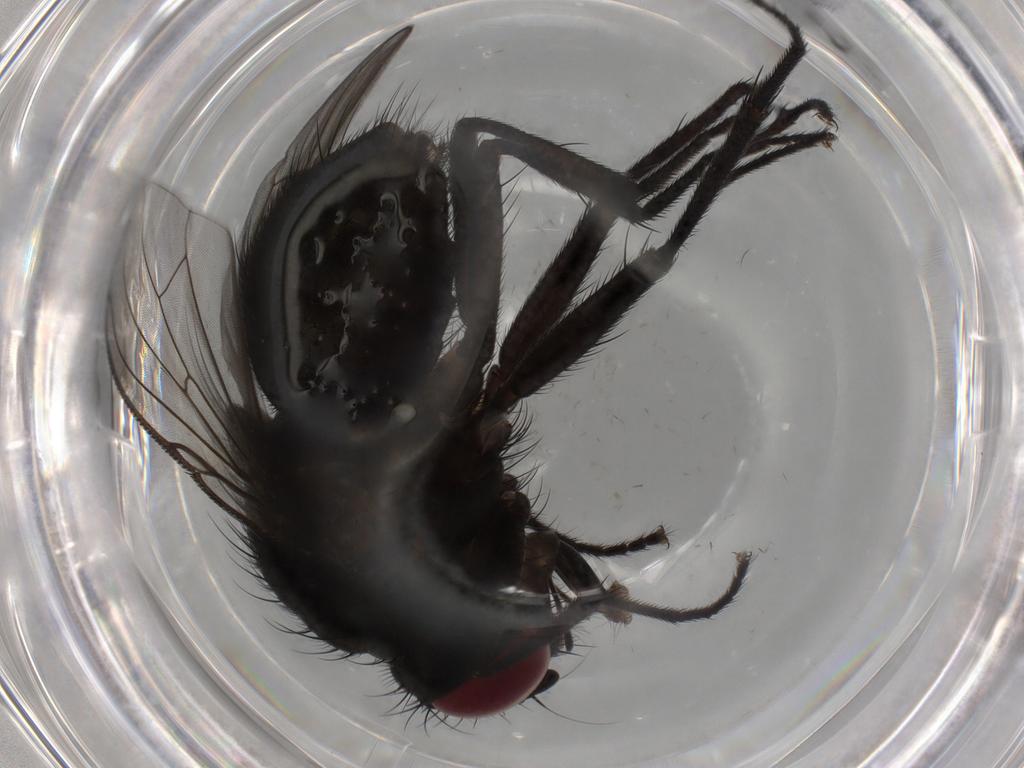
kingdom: Animalia
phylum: Arthropoda
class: Insecta
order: Diptera
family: Muscidae
